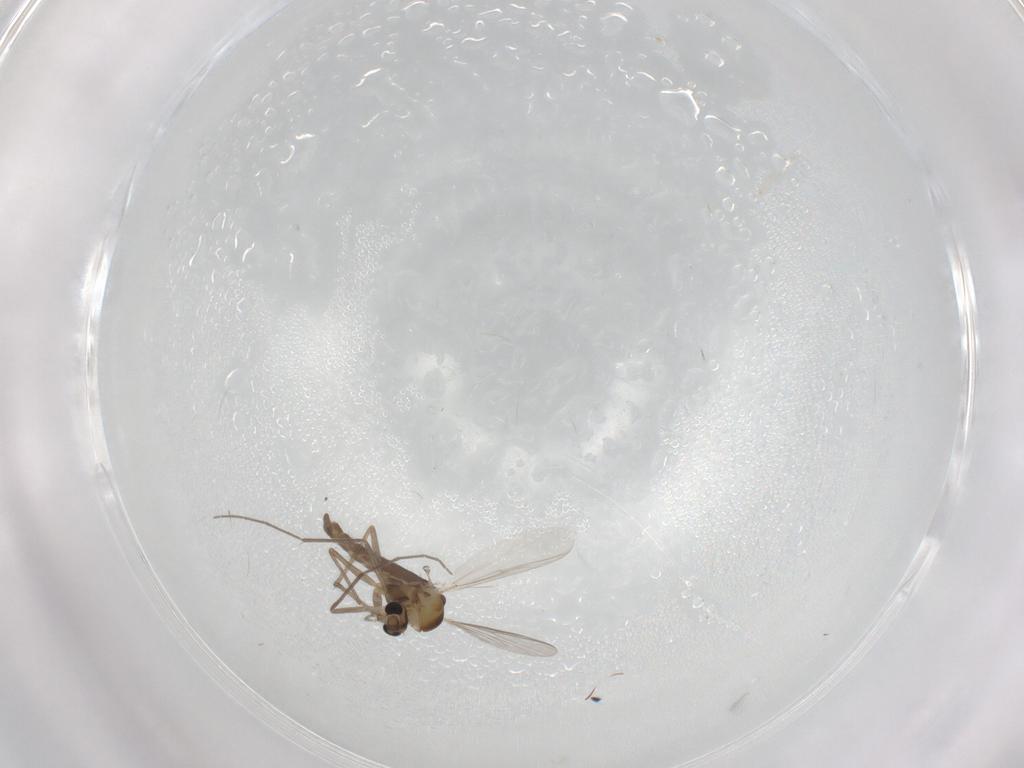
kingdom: Animalia
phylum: Arthropoda
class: Insecta
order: Diptera
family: Chironomidae
